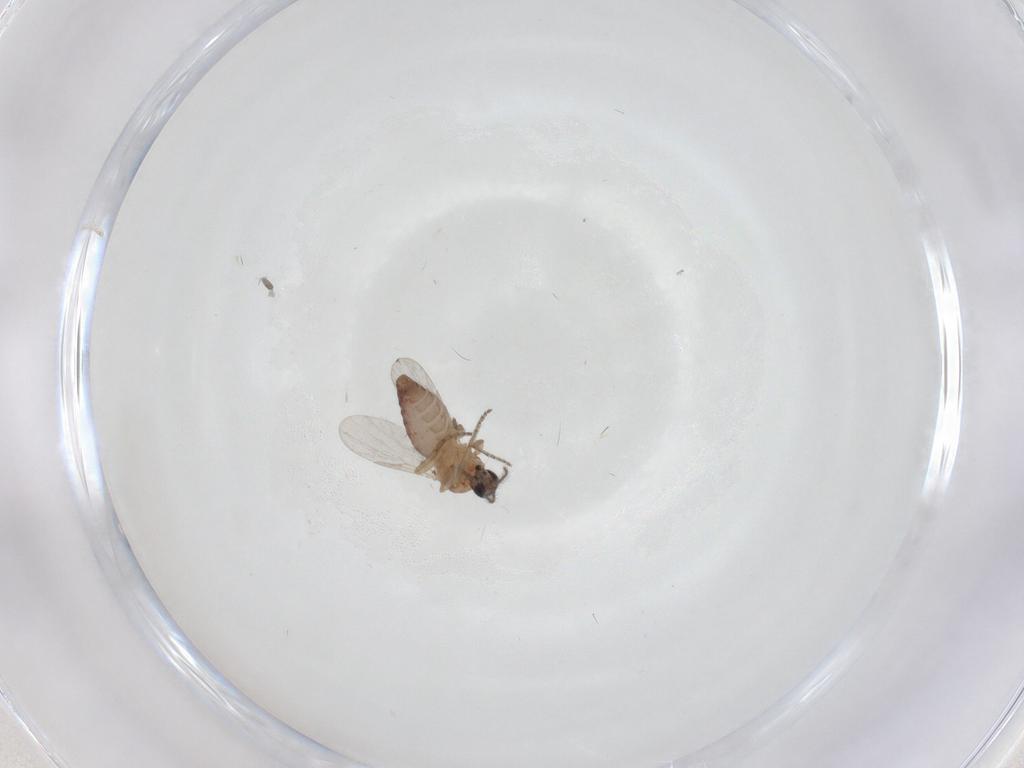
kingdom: Animalia
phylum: Arthropoda
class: Insecta
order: Diptera
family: Ceratopogonidae
